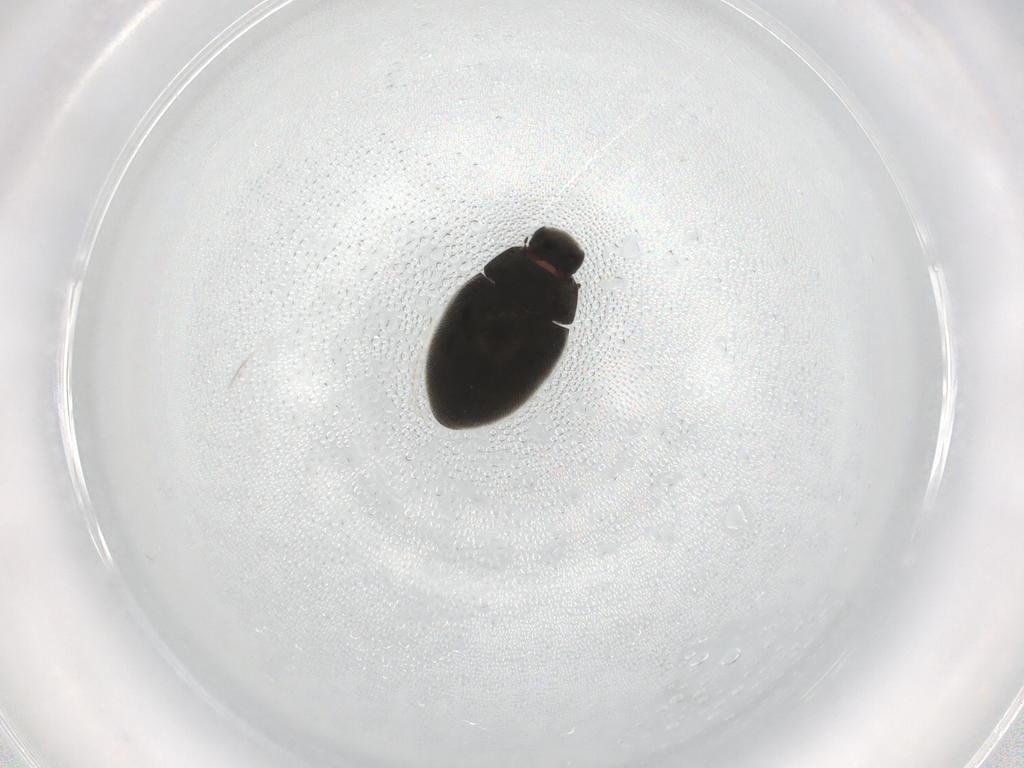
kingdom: Animalia
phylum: Arthropoda
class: Insecta
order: Coleoptera
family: Limnichidae
